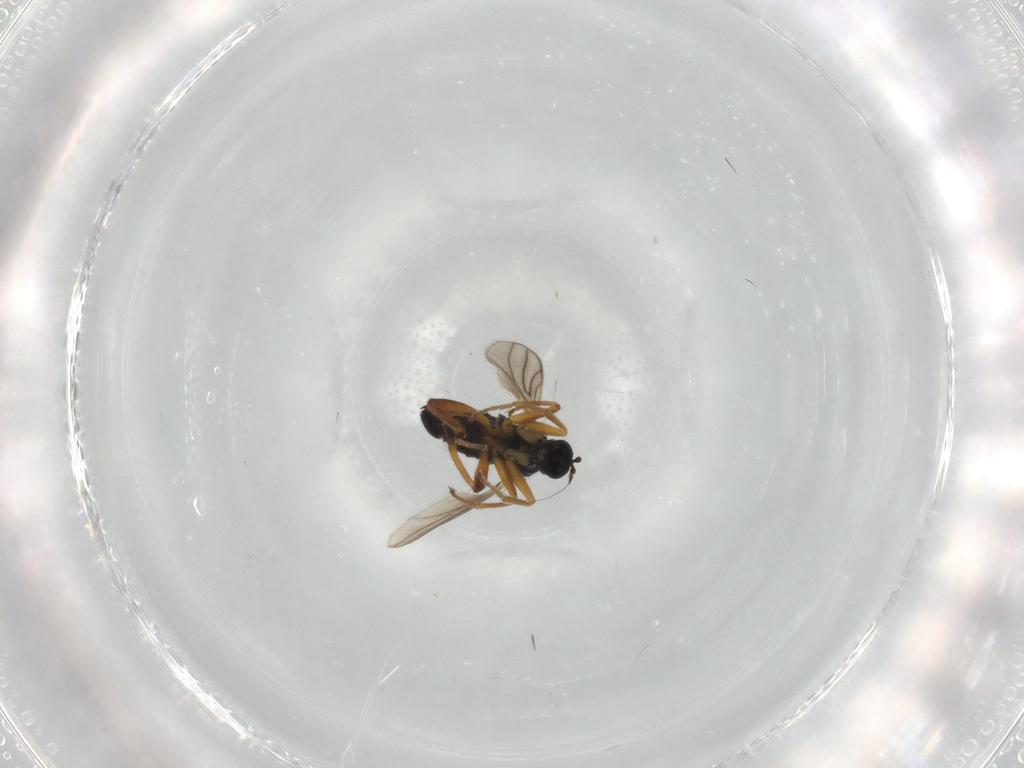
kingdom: Animalia
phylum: Arthropoda
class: Insecta
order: Diptera
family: Hybotidae
